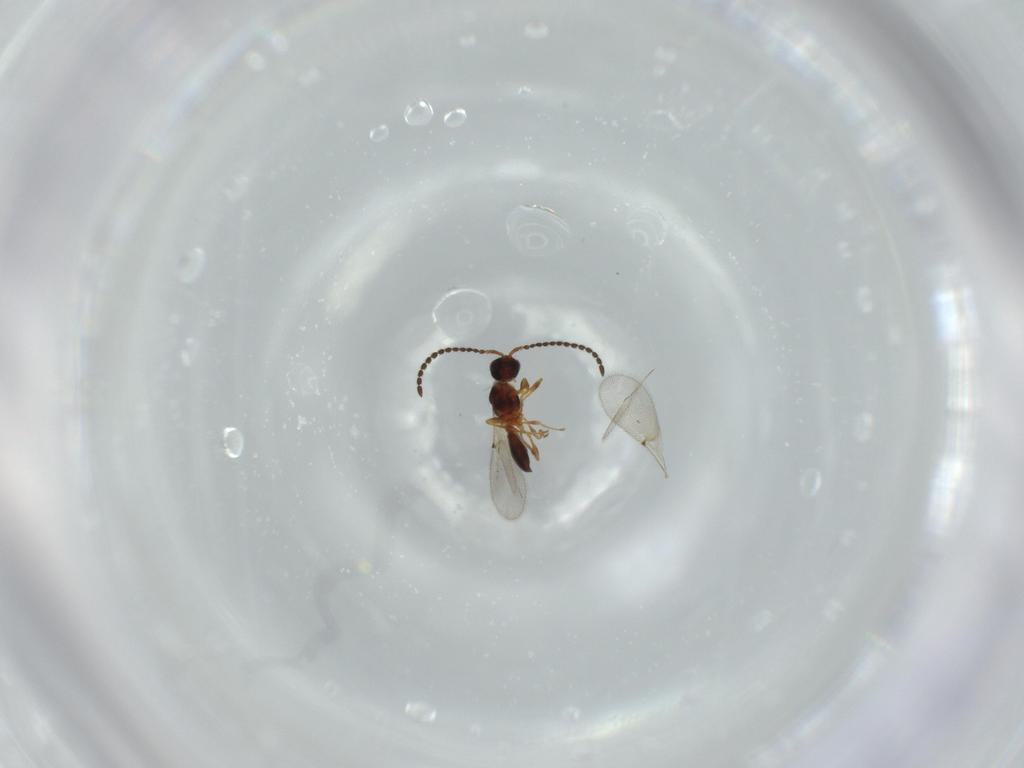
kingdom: Animalia
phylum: Arthropoda
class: Insecta
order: Hymenoptera
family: Diapriidae
